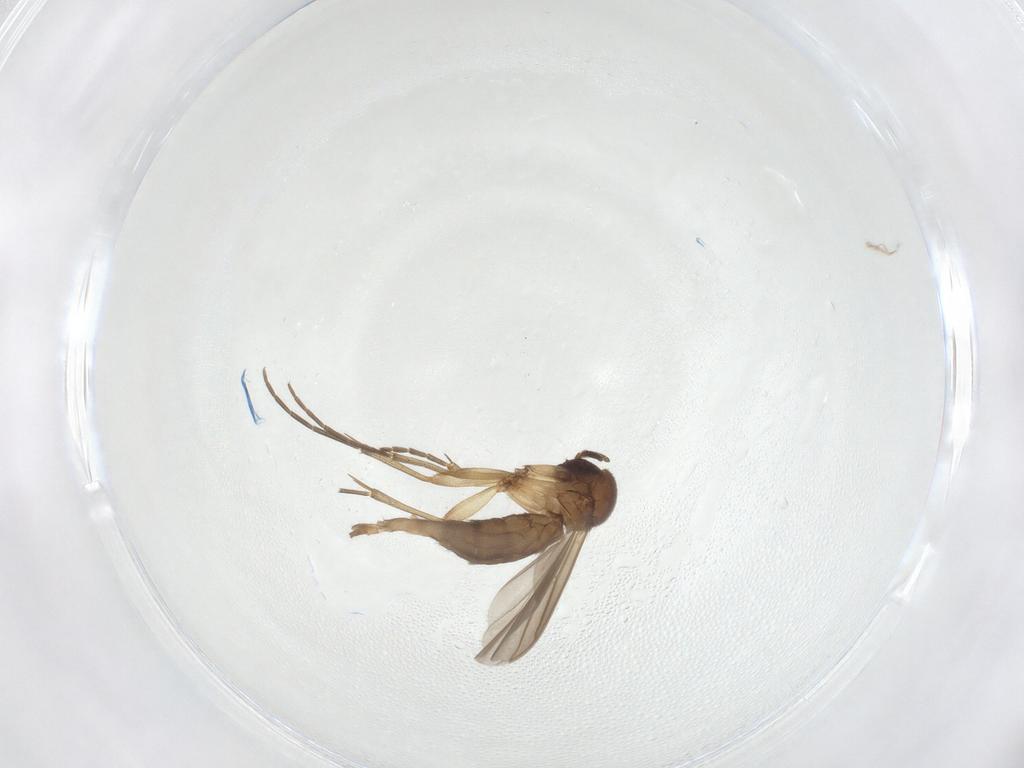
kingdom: Animalia
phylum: Arthropoda
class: Insecta
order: Diptera
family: Mycetophilidae
